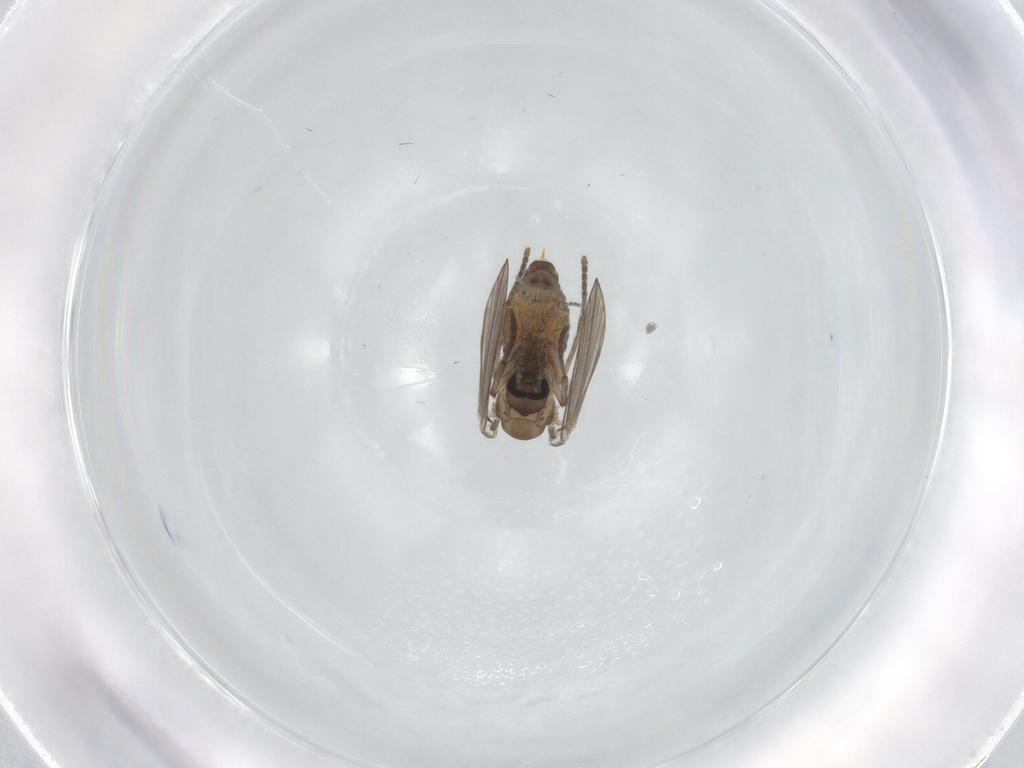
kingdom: Animalia
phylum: Arthropoda
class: Insecta
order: Diptera
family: Psychodidae
